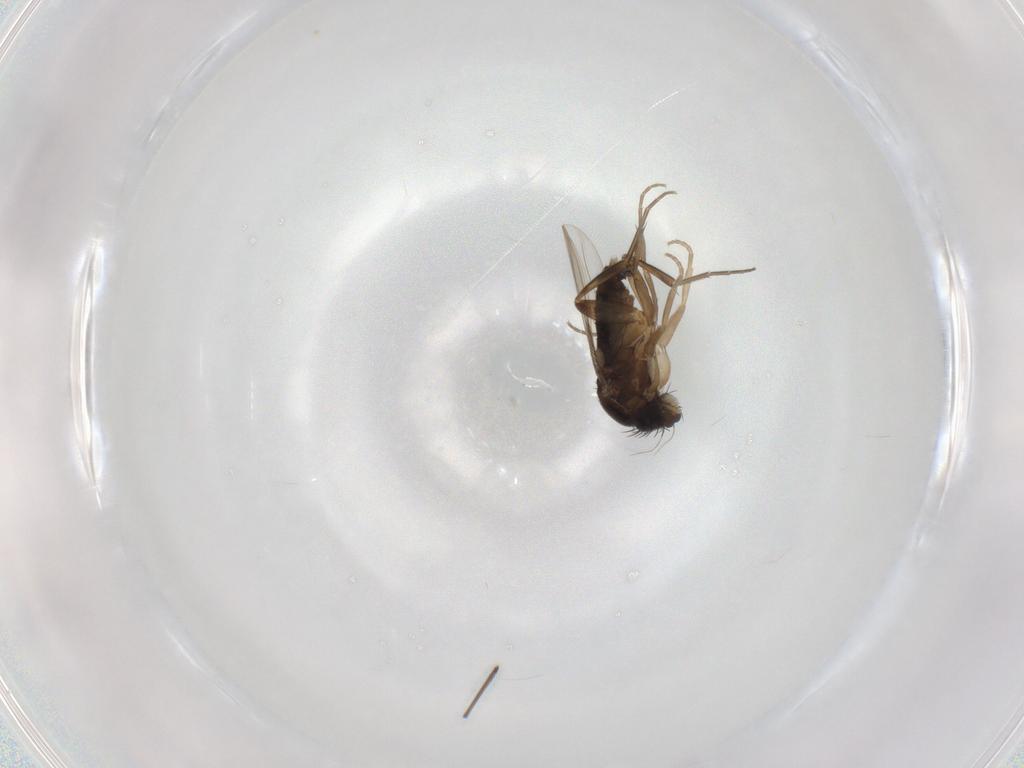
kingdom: Animalia
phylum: Arthropoda
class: Insecta
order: Diptera
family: Phoridae
